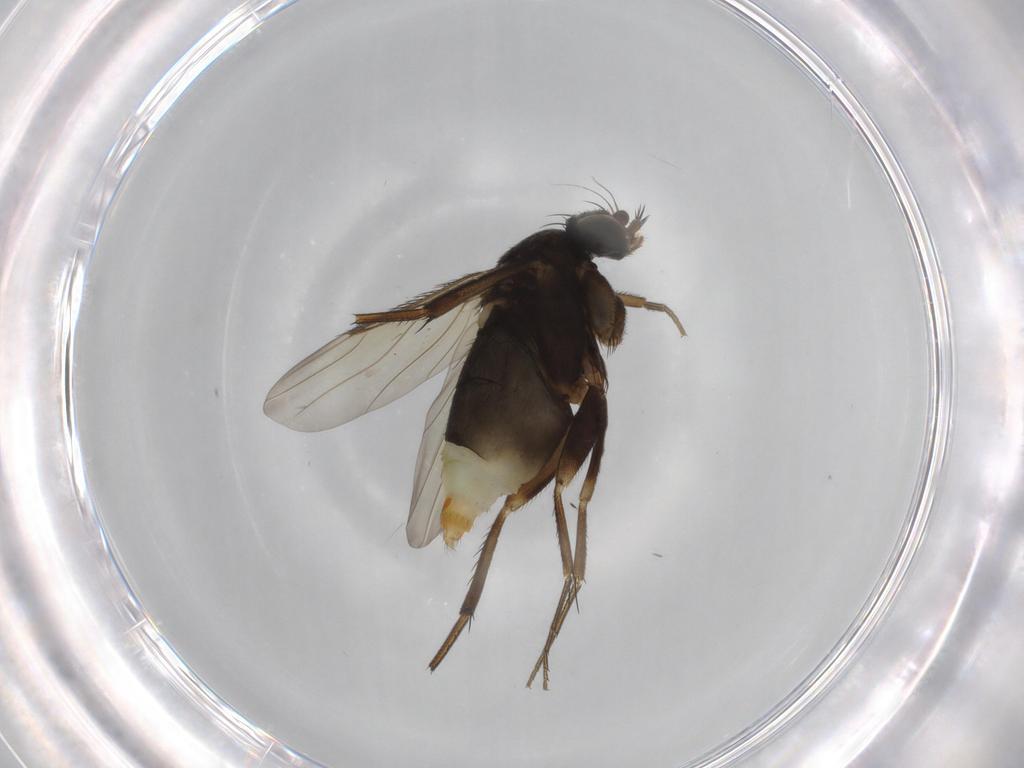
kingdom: Animalia
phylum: Arthropoda
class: Insecta
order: Diptera
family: Phoridae
